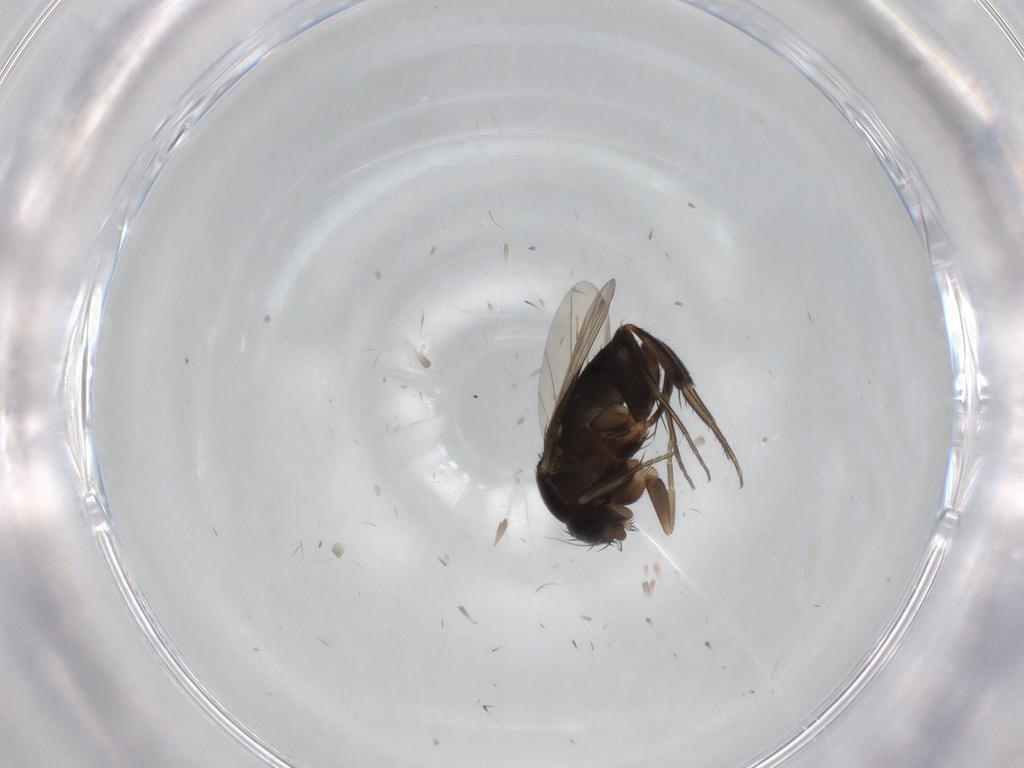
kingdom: Animalia
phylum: Arthropoda
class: Insecta
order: Diptera
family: Phoridae
